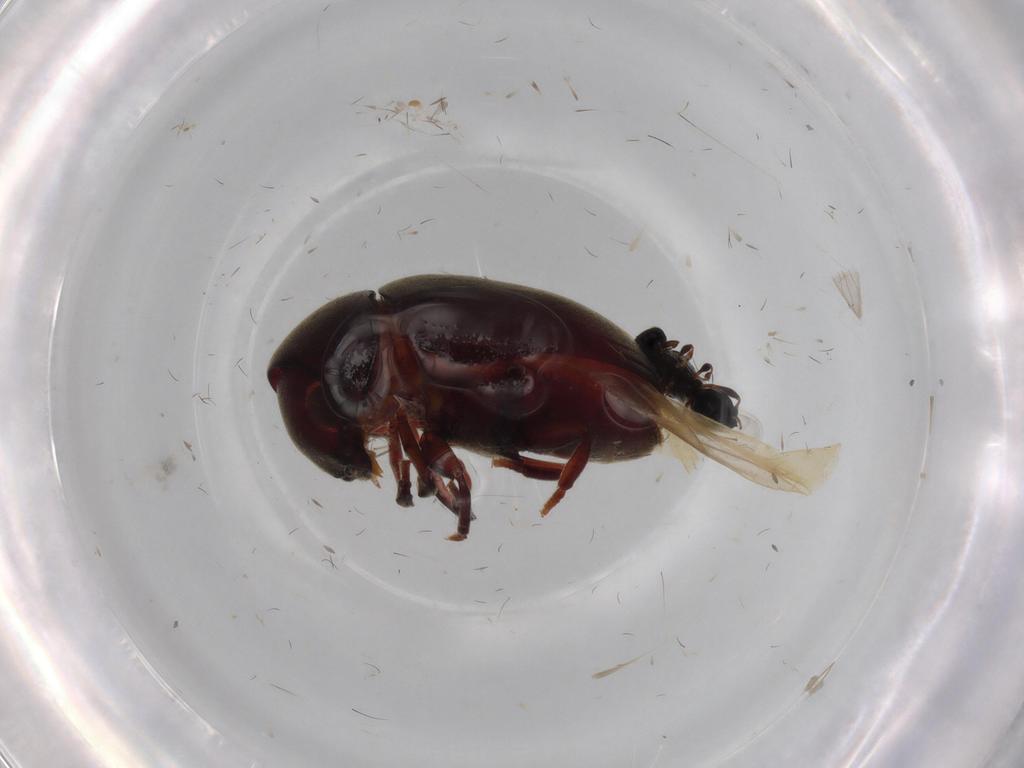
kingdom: Animalia
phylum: Arthropoda
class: Insecta
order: Coleoptera
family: Ptinidae
